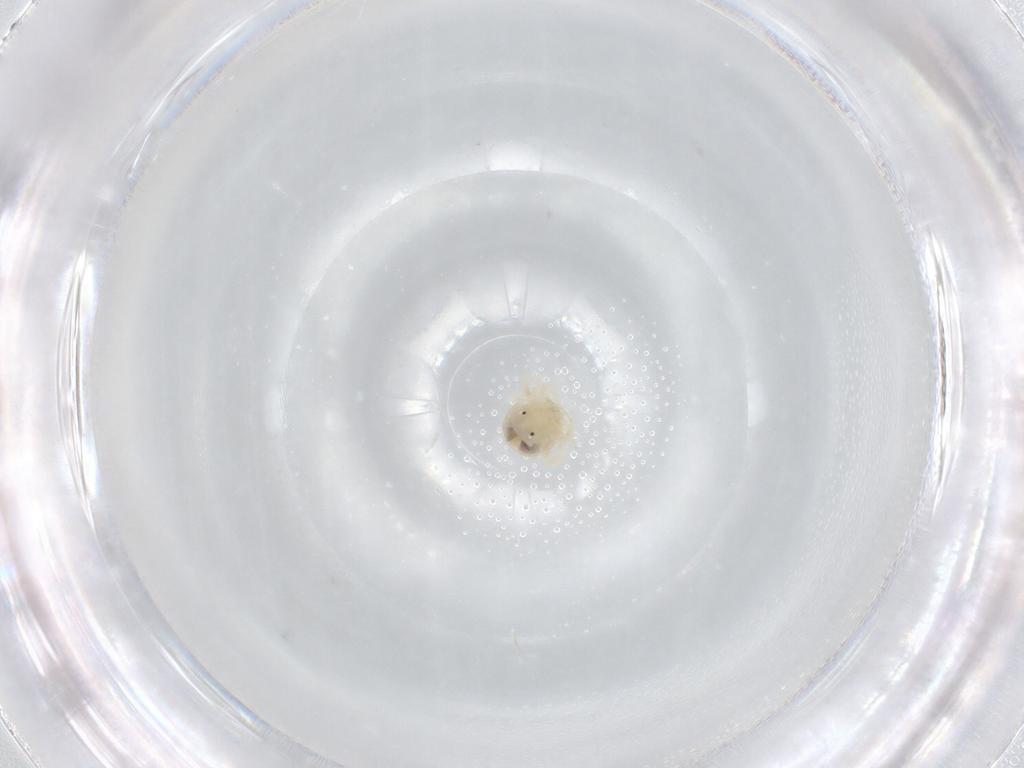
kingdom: Animalia
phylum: Arthropoda
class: Arachnida
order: Trombidiformes
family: Anystidae
